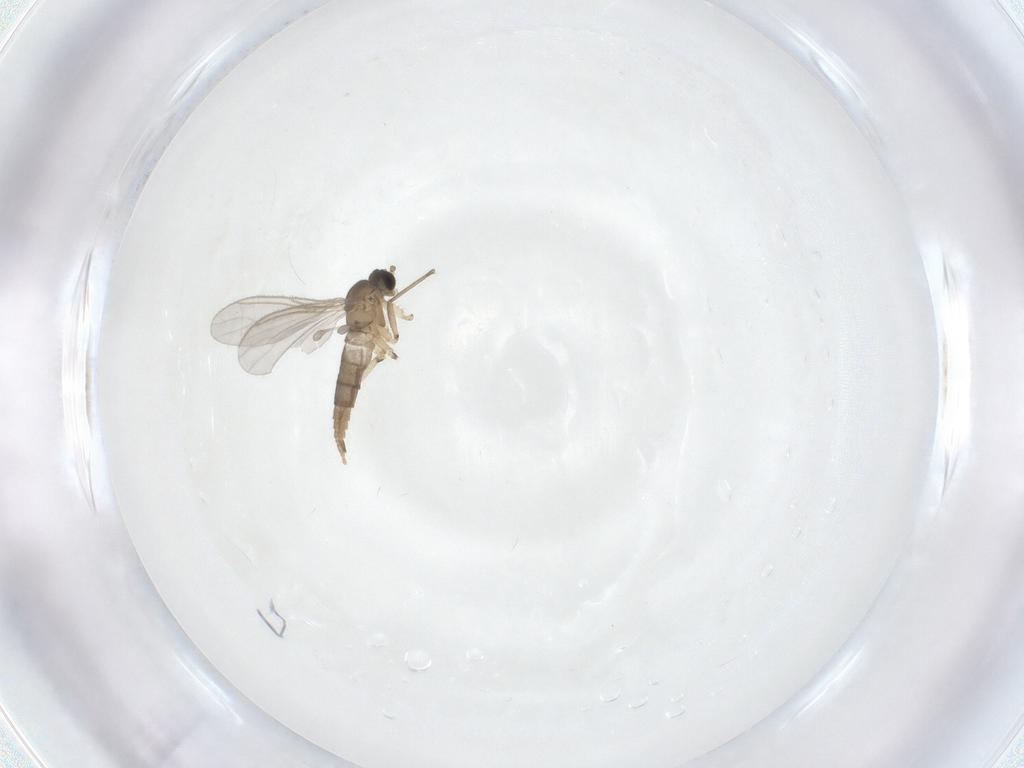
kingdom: Animalia
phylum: Arthropoda
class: Insecta
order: Diptera
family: Sciaridae
